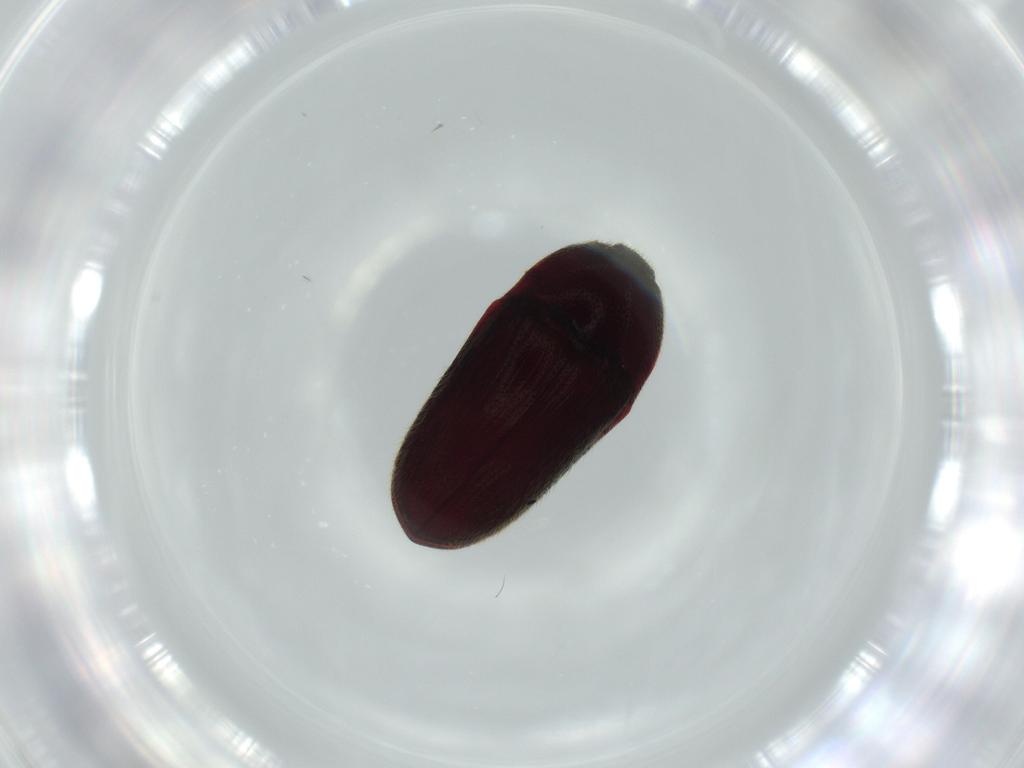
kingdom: Animalia
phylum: Arthropoda
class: Insecta
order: Coleoptera
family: Throscidae
